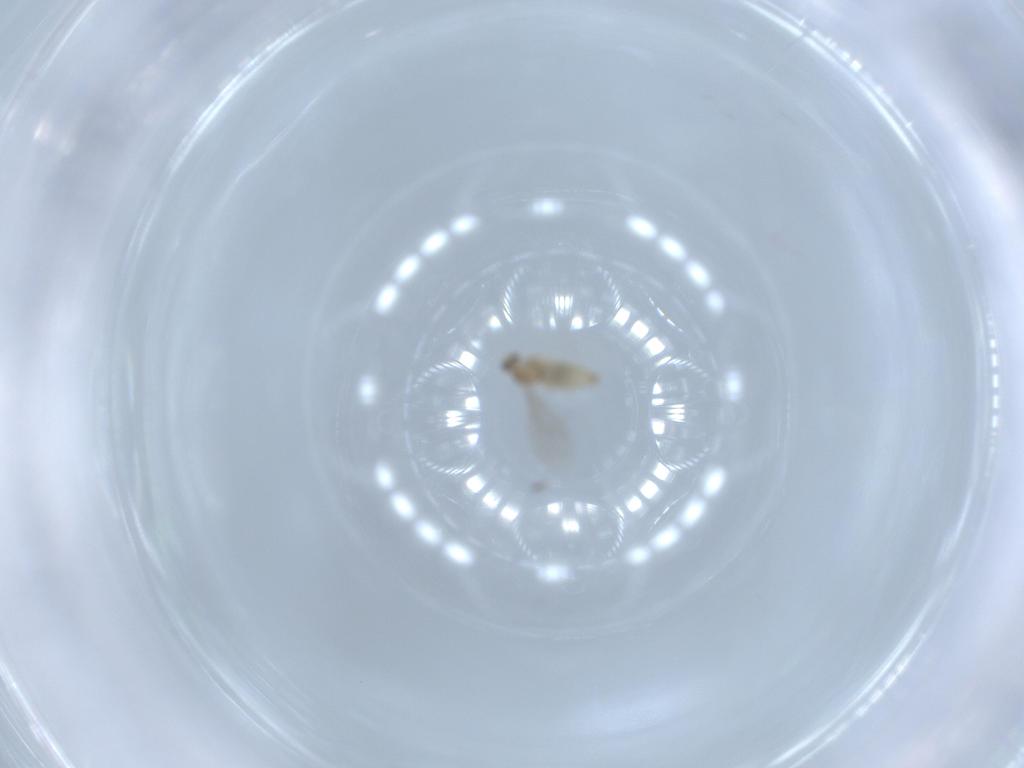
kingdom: Animalia
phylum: Arthropoda
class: Insecta
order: Diptera
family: Cecidomyiidae
